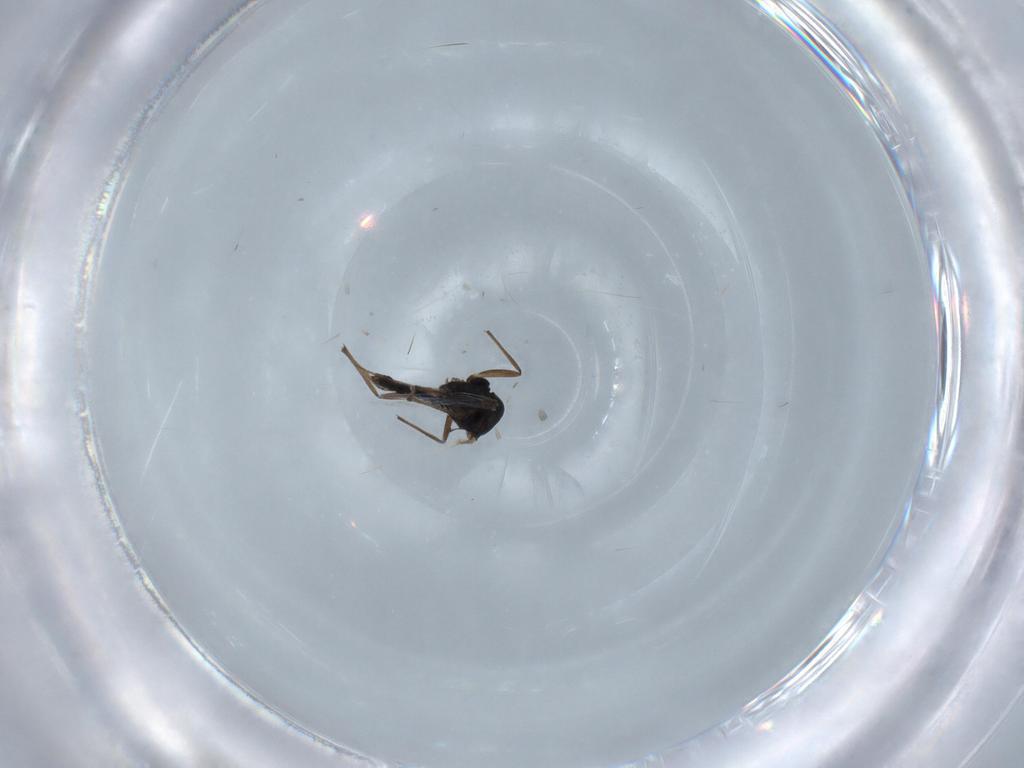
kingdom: Animalia
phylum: Arthropoda
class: Insecta
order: Diptera
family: Chironomidae
